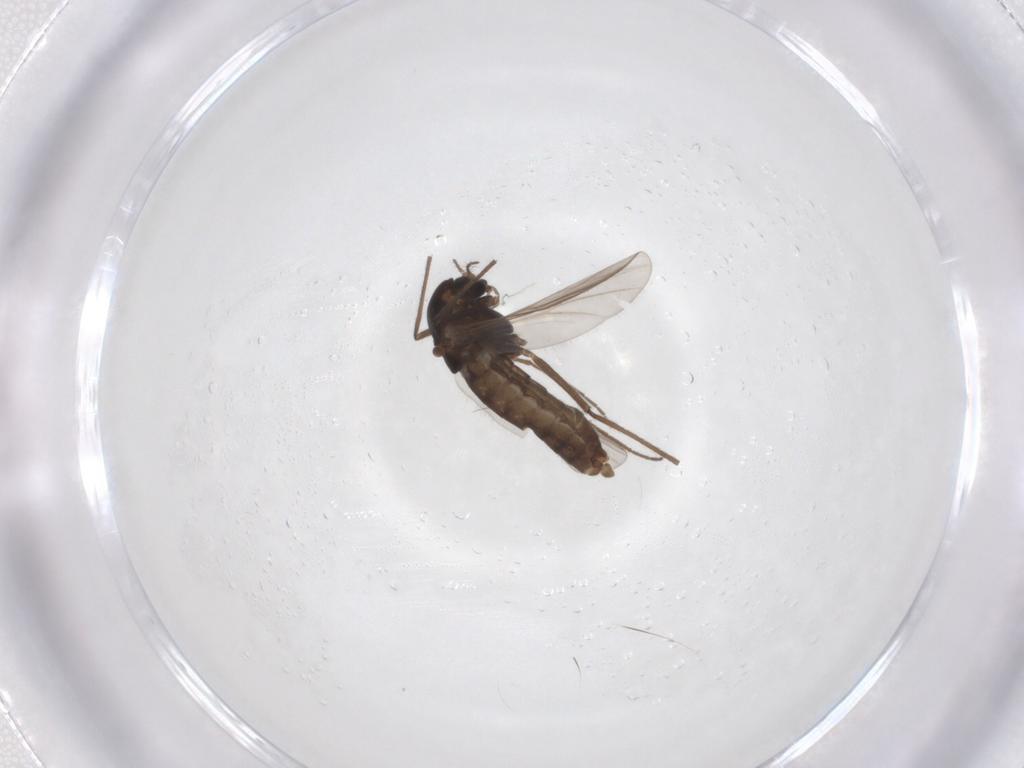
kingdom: Animalia
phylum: Arthropoda
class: Insecta
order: Diptera
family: Chironomidae
